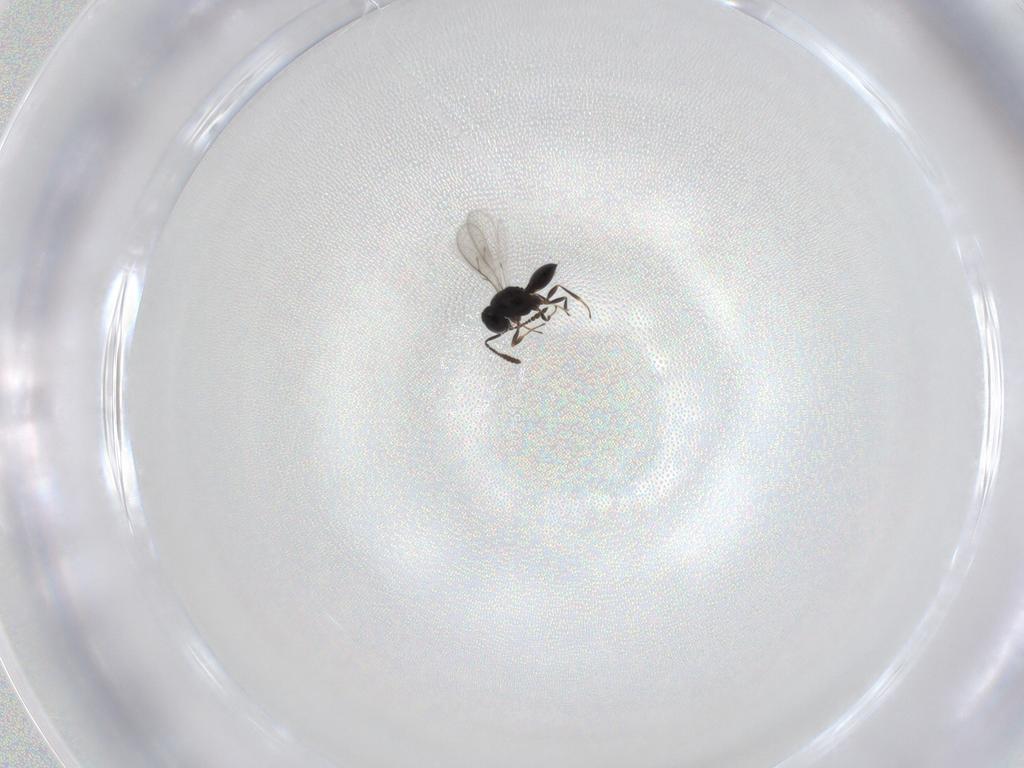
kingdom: Animalia
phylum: Arthropoda
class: Insecta
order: Hymenoptera
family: Scelionidae
